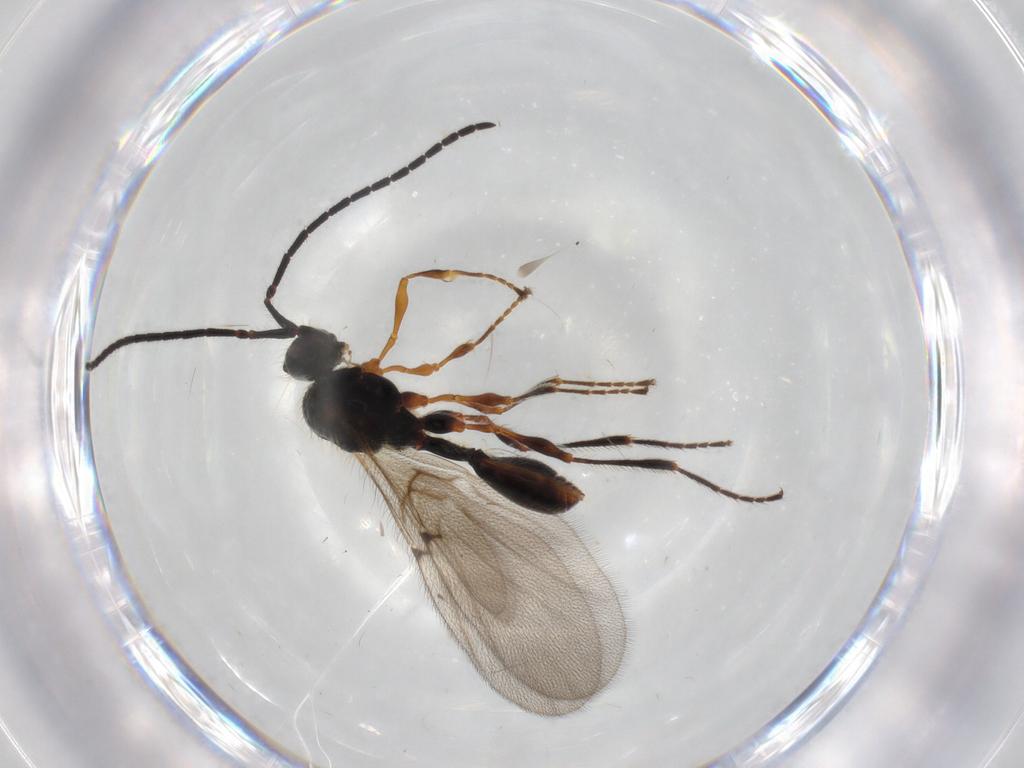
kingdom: Animalia
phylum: Arthropoda
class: Insecta
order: Hymenoptera
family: Diapriidae
